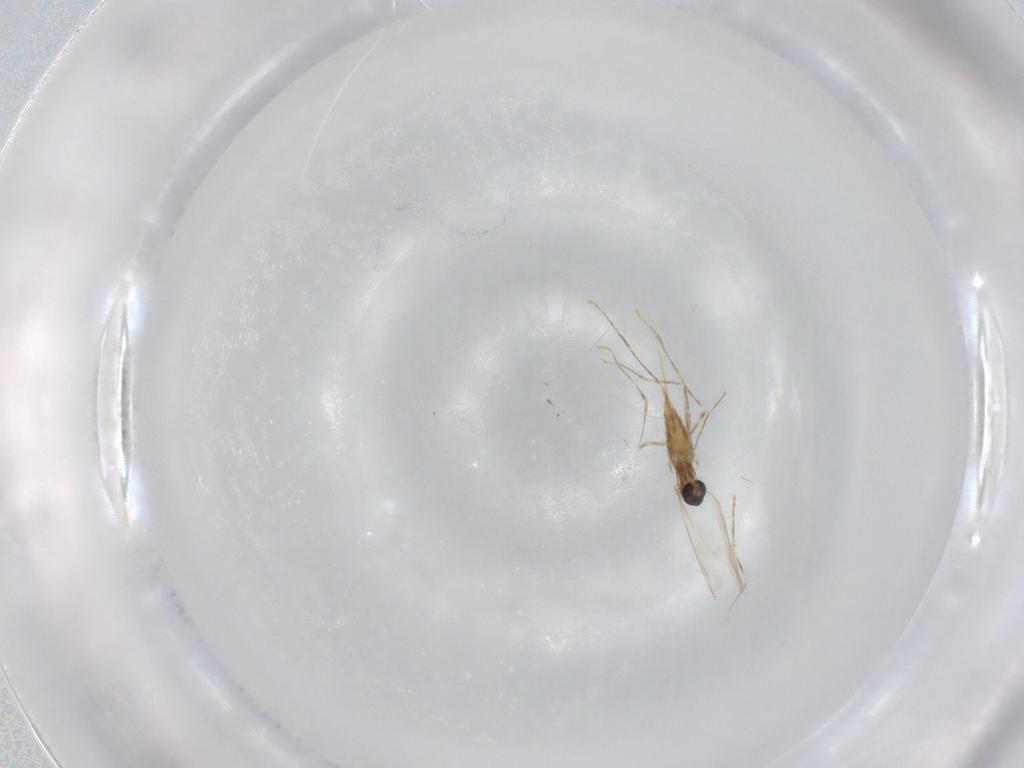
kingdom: Animalia
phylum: Arthropoda
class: Insecta
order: Diptera
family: Cecidomyiidae
